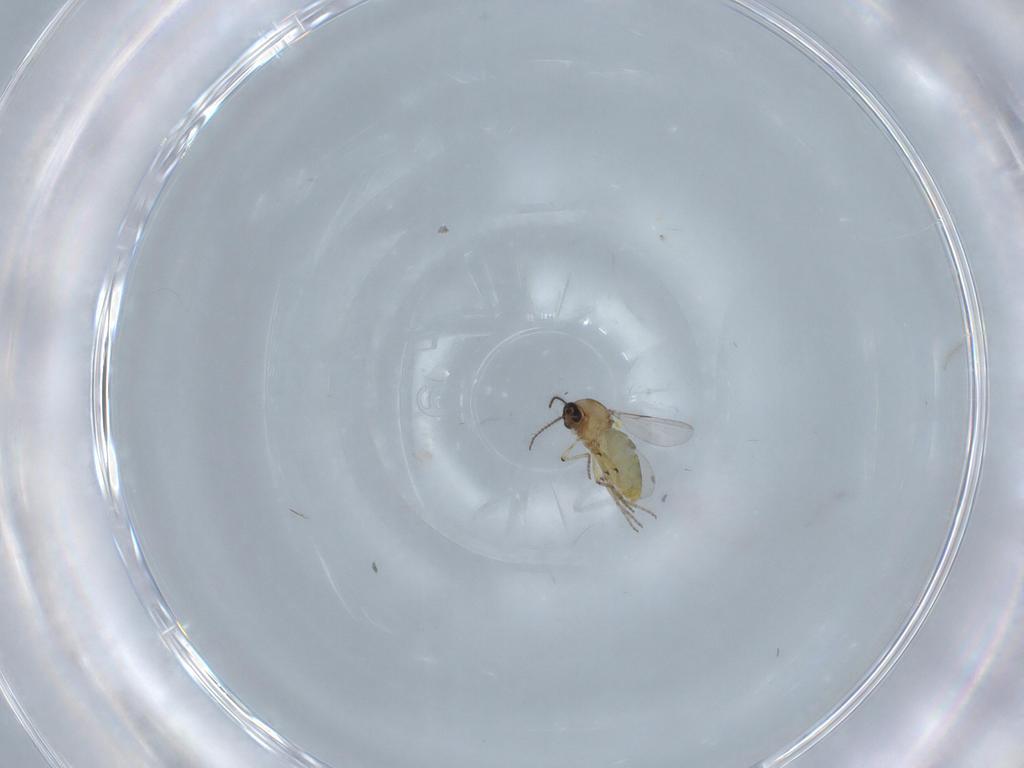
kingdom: Animalia
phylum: Arthropoda
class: Insecta
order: Diptera
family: Ceratopogonidae
